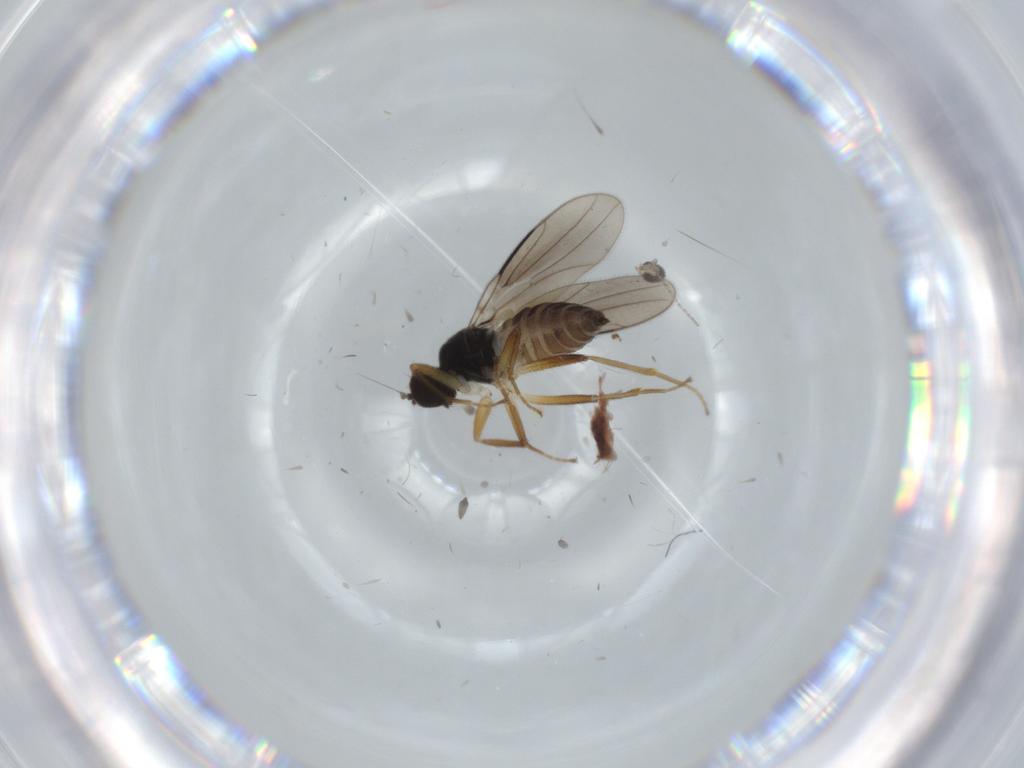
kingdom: Animalia
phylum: Arthropoda
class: Insecta
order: Diptera
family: Hybotidae
